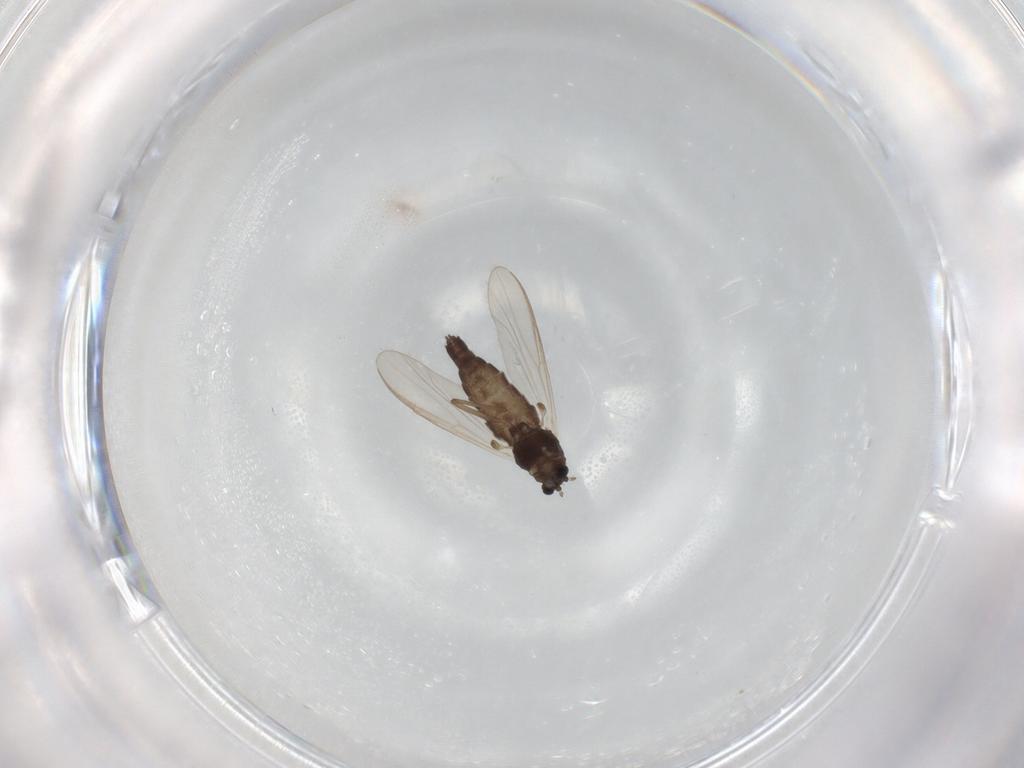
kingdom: Animalia
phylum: Arthropoda
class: Insecta
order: Diptera
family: Chironomidae
